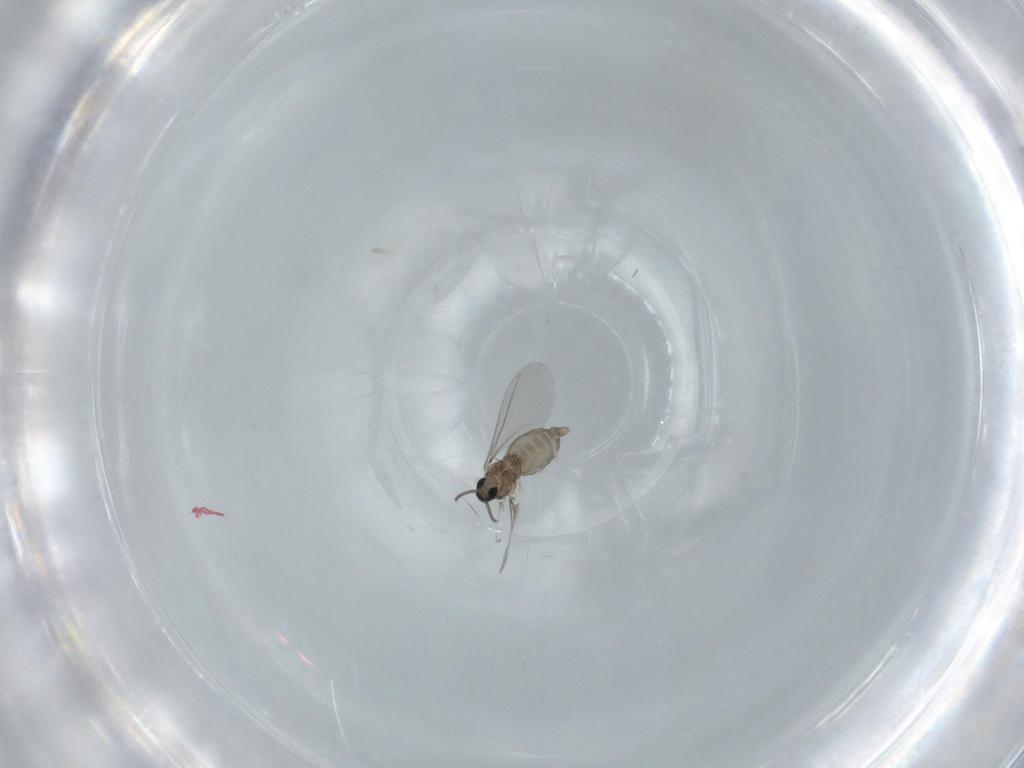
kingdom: Animalia
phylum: Arthropoda
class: Insecta
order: Diptera
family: Cecidomyiidae
